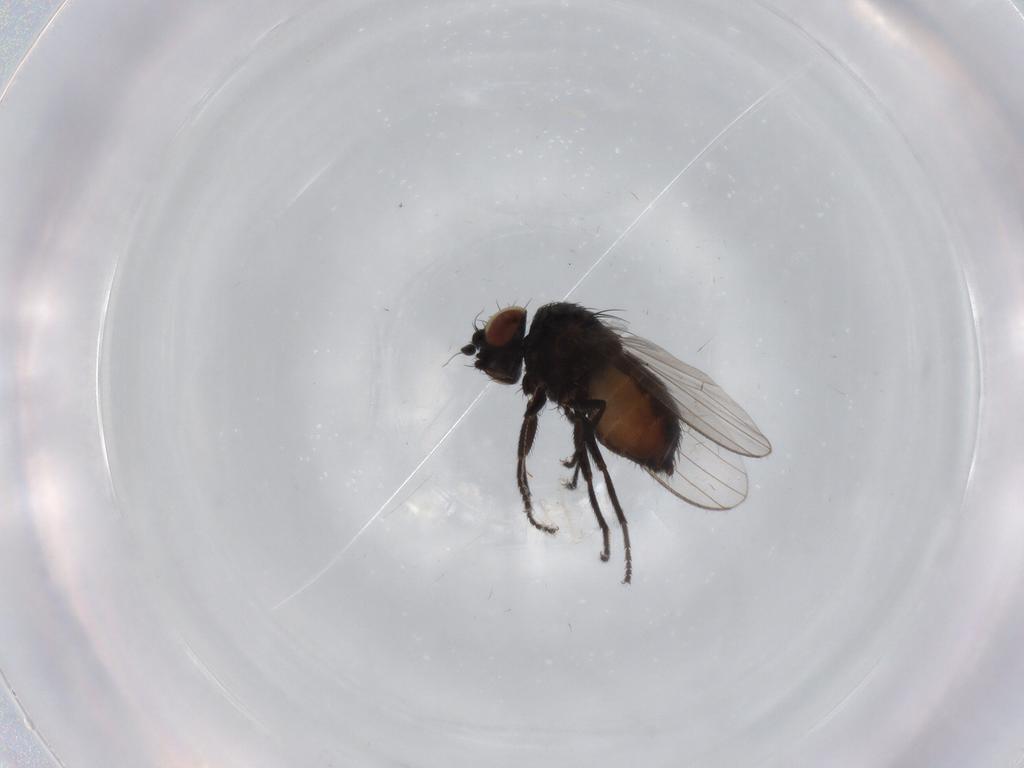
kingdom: Animalia
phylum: Arthropoda
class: Insecta
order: Diptera
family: Milichiidae
